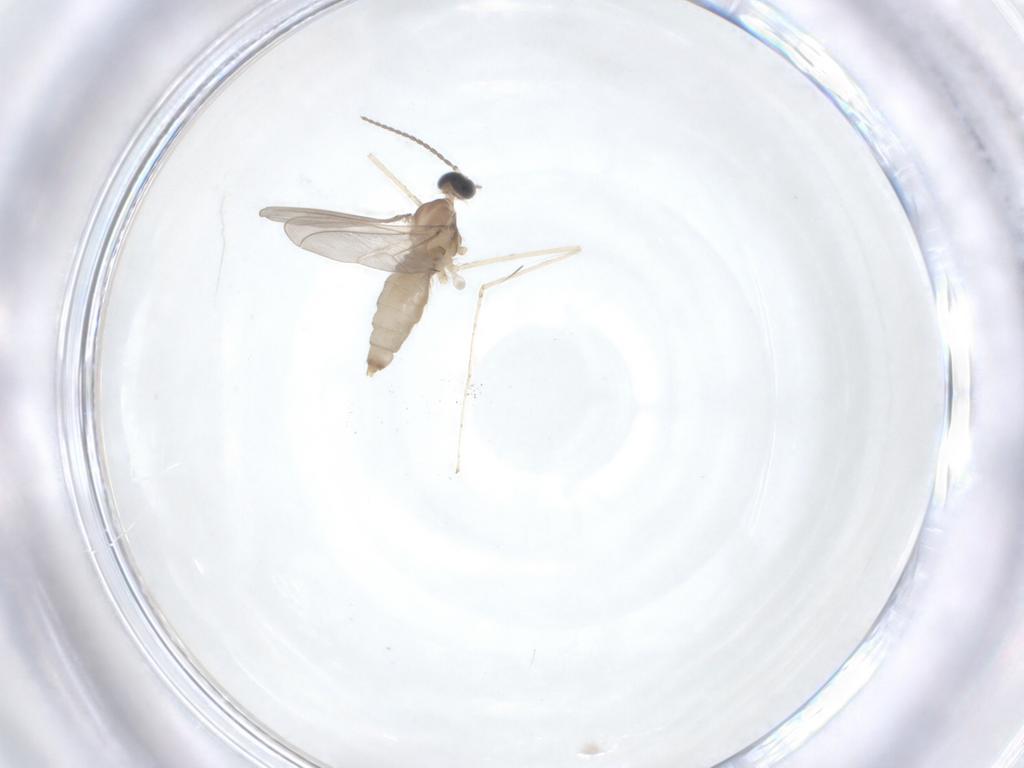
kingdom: Animalia
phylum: Arthropoda
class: Insecta
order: Diptera
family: Cecidomyiidae
